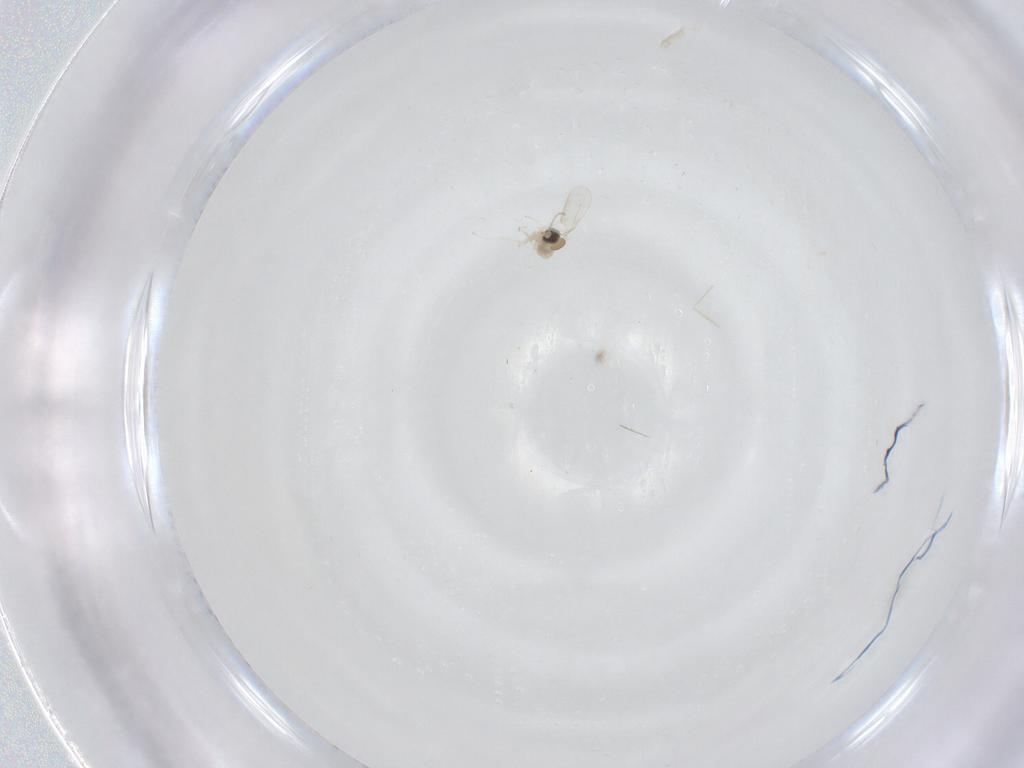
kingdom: Animalia
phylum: Arthropoda
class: Insecta
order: Diptera
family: Cecidomyiidae
